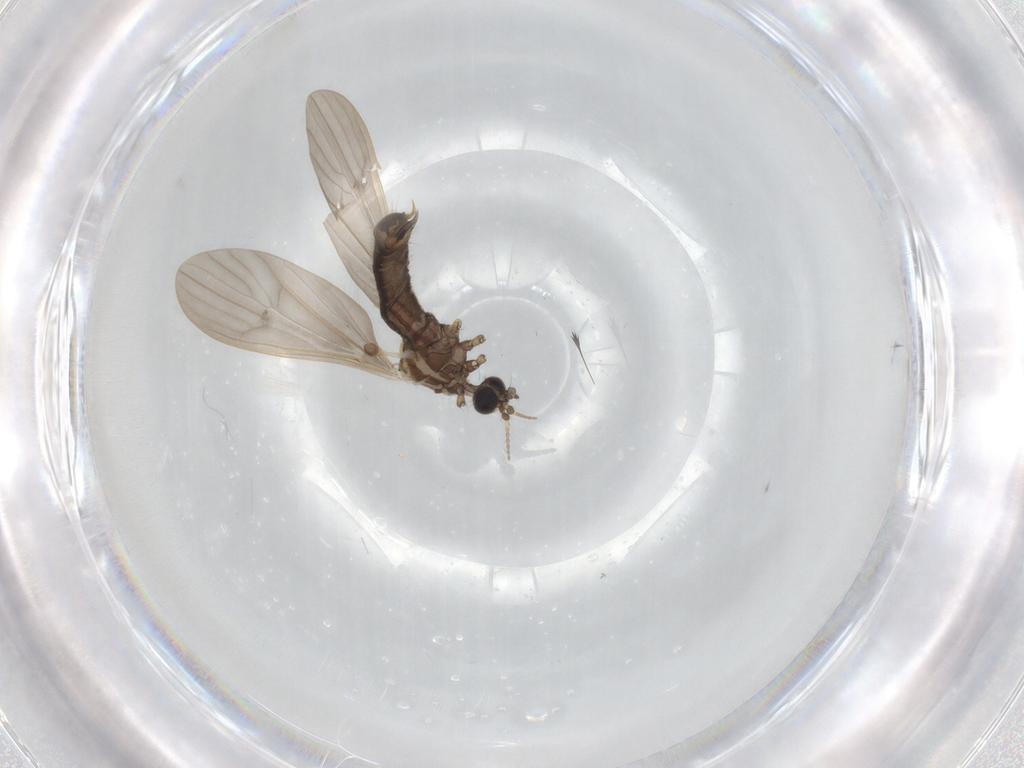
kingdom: Animalia
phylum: Arthropoda
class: Insecta
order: Diptera
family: Limoniidae
